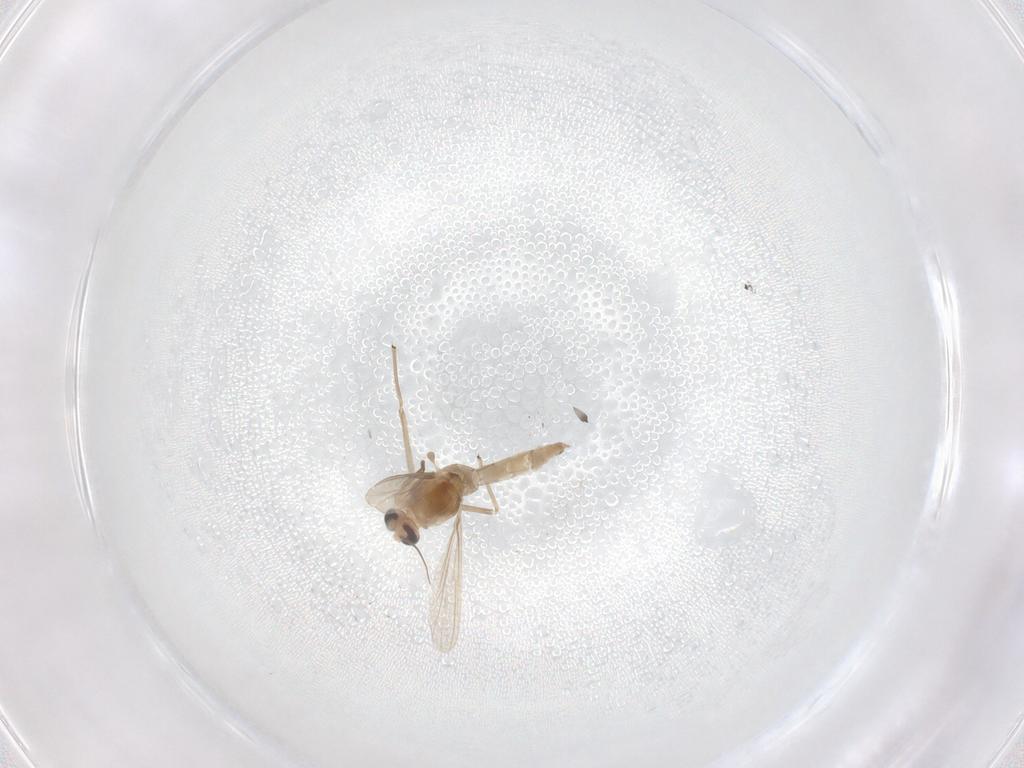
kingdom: Animalia
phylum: Arthropoda
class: Insecta
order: Diptera
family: Chironomidae
